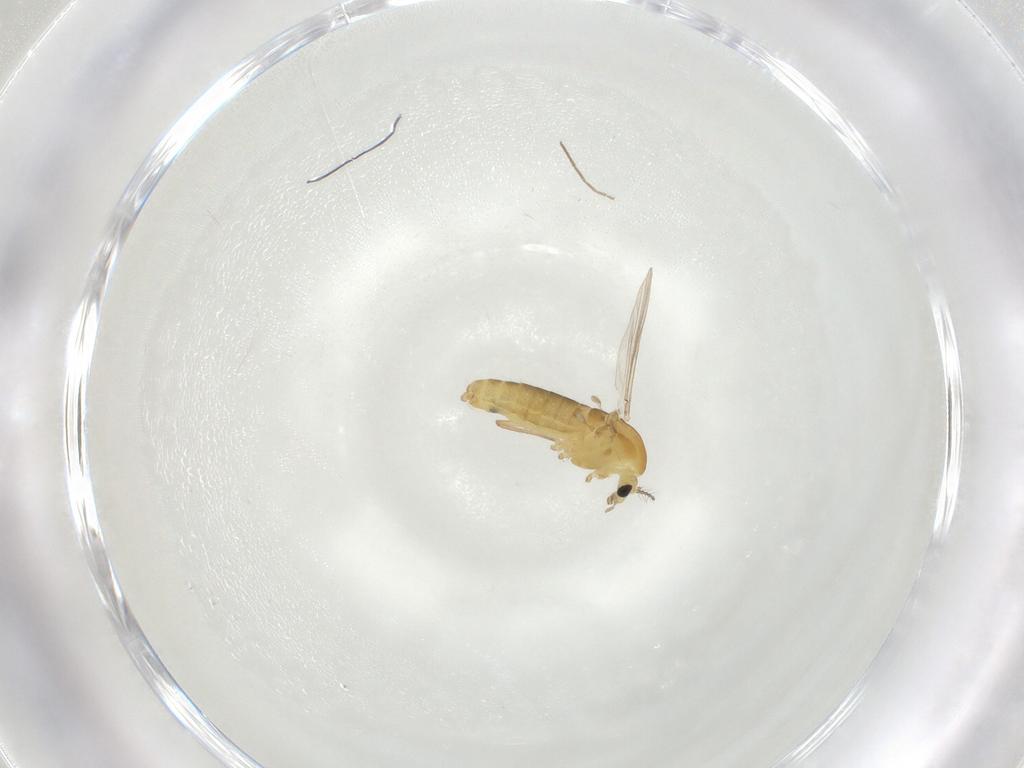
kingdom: Animalia
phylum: Arthropoda
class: Insecta
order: Diptera
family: Chironomidae
